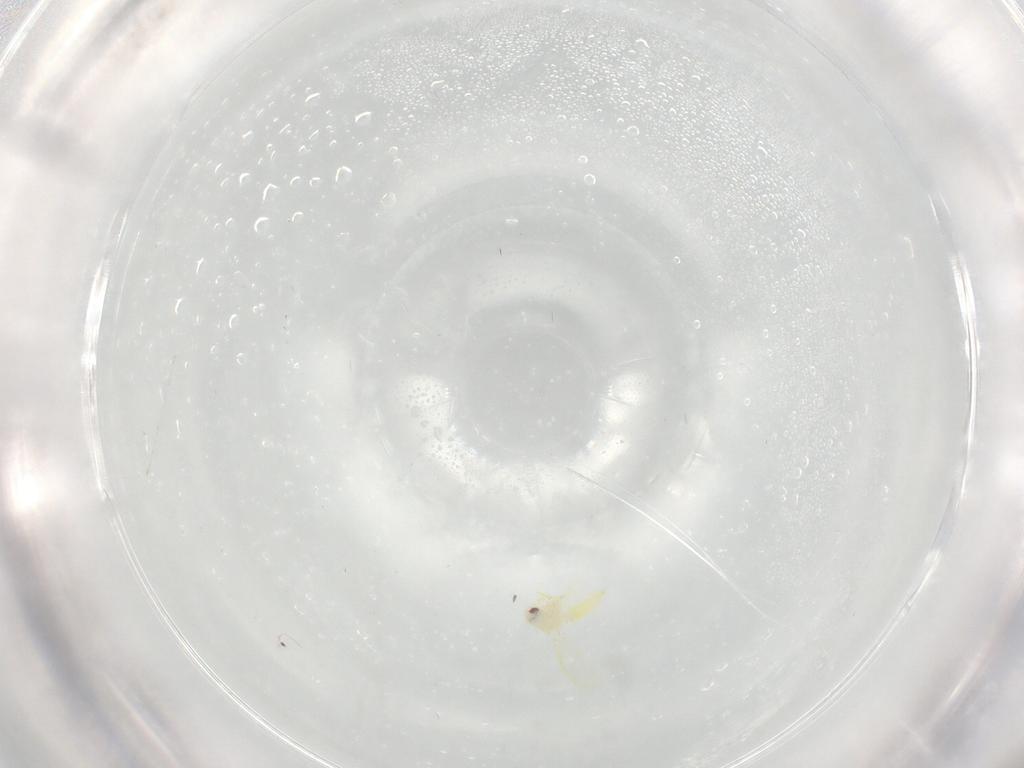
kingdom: Animalia
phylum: Arthropoda
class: Insecta
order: Hemiptera
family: Aleyrodidae
